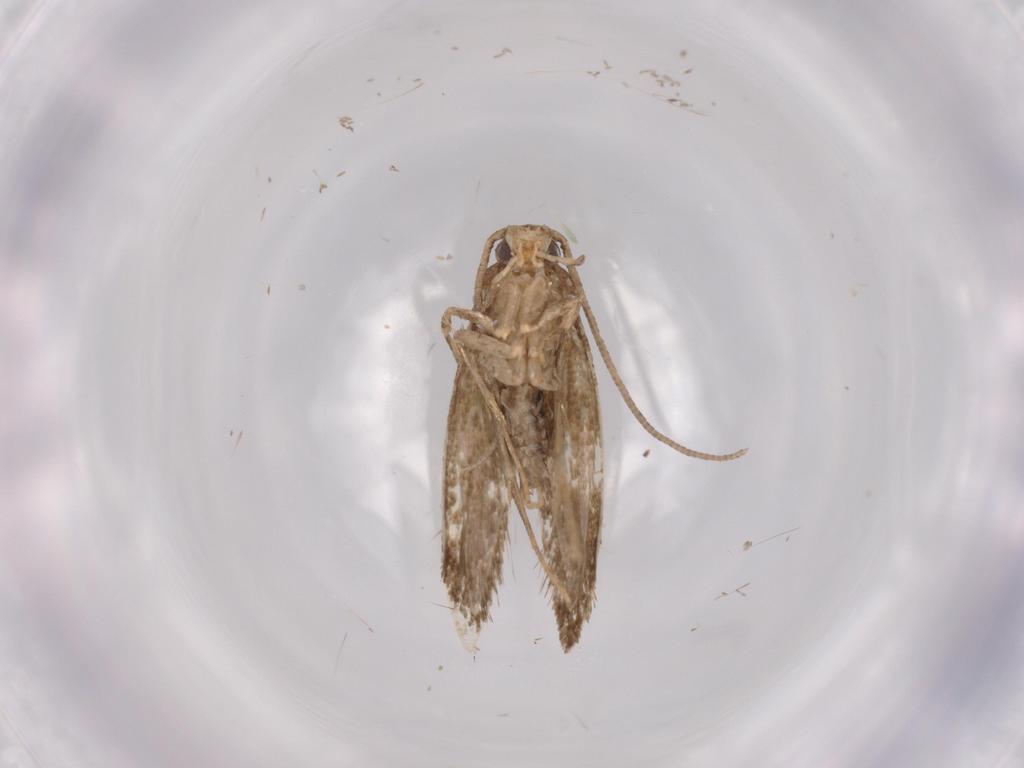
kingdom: Animalia
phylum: Arthropoda
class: Insecta
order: Lepidoptera
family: Tineidae
